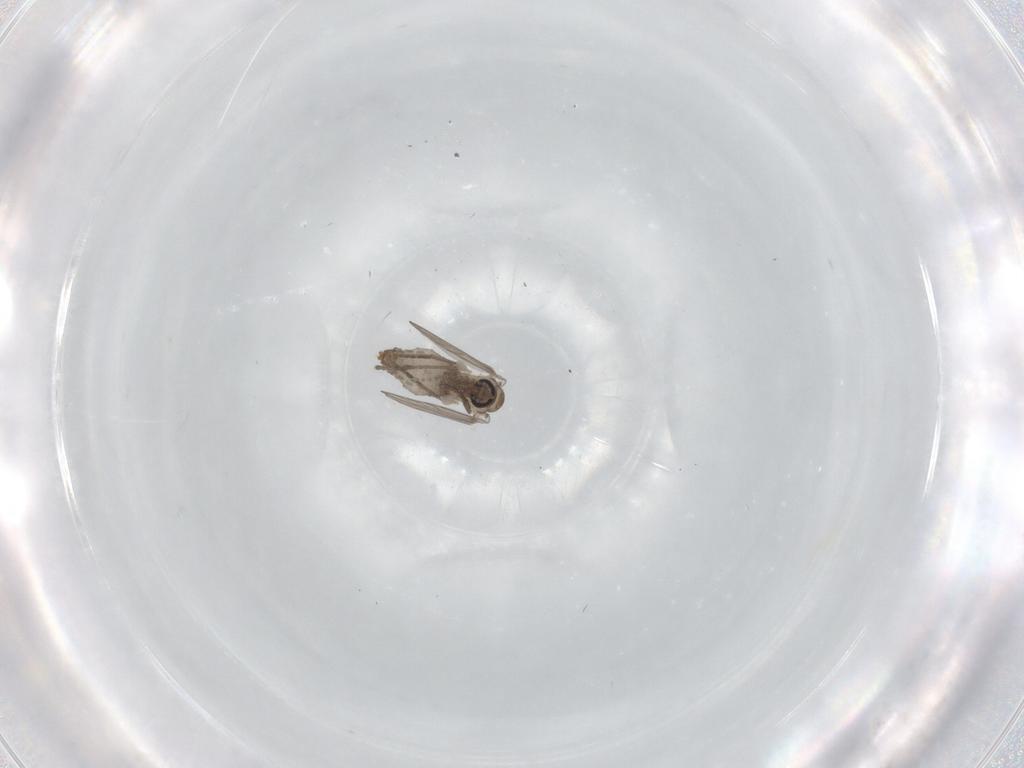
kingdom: Animalia
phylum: Arthropoda
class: Insecta
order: Diptera
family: Psychodidae
